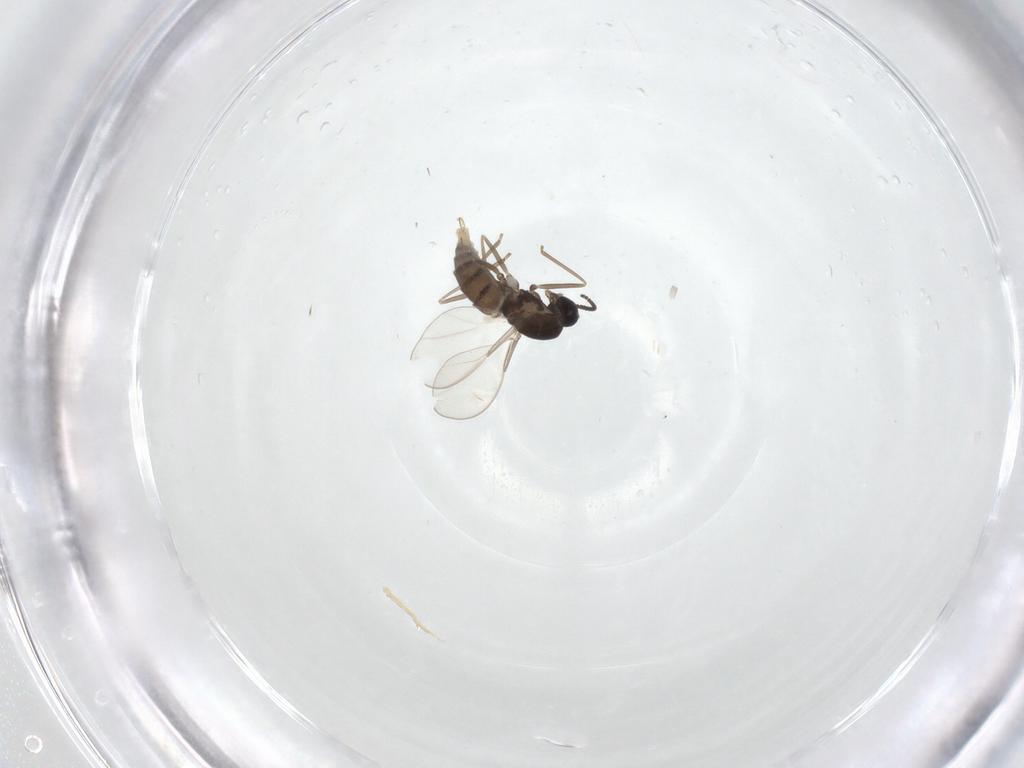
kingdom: Animalia
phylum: Arthropoda
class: Insecta
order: Diptera
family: Cecidomyiidae
